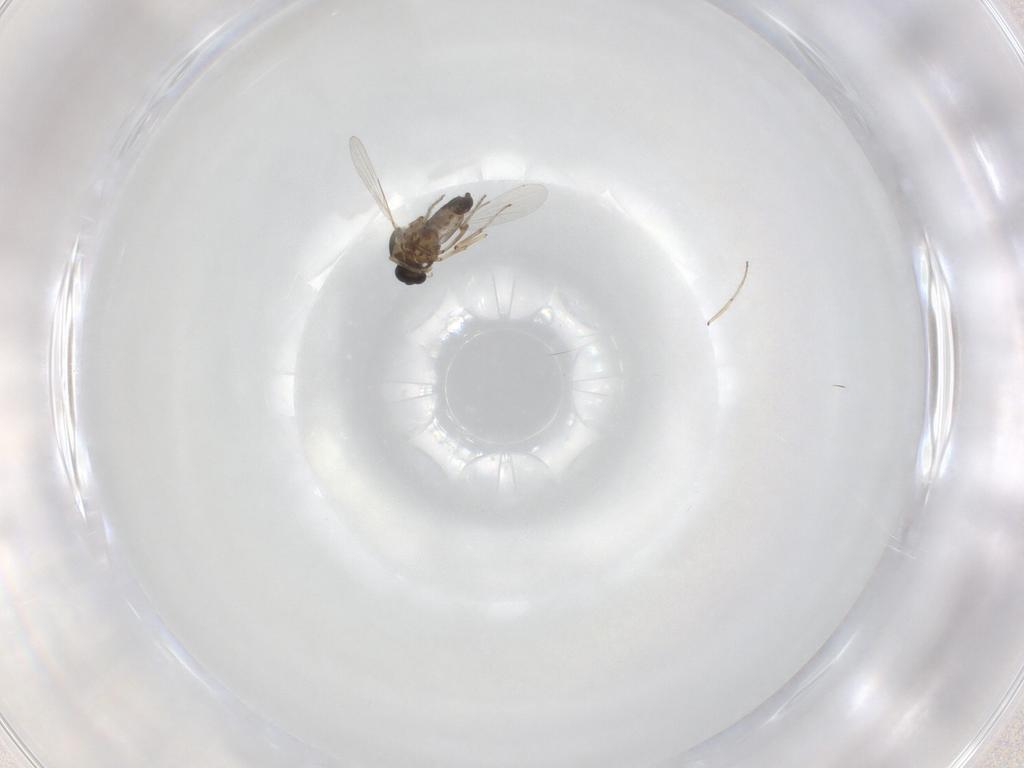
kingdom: Animalia
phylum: Arthropoda
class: Insecta
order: Diptera
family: Ceratopogonidae
